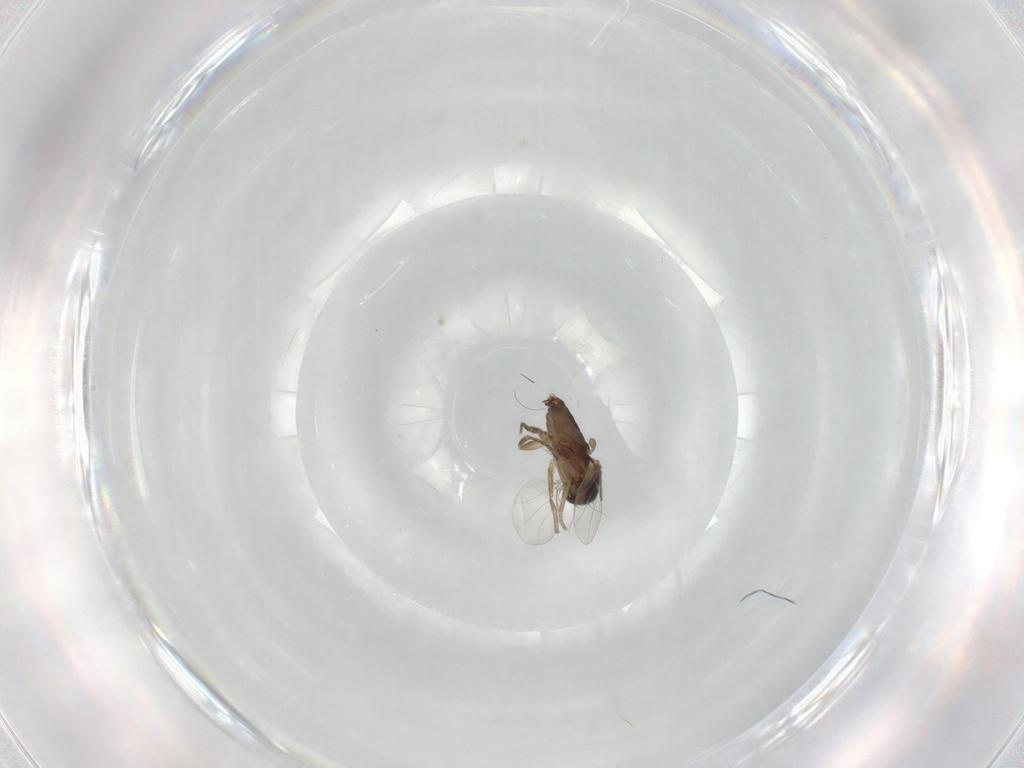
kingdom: Animalia
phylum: Arthropoda
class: Insecta
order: Diptera
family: Phoridae
